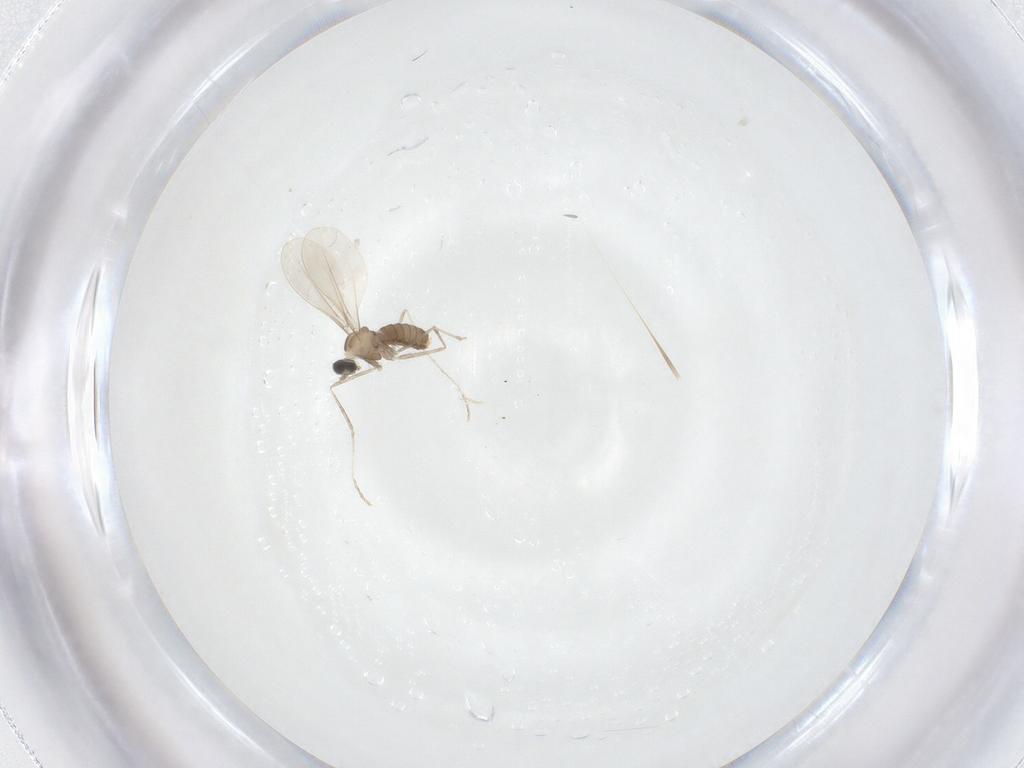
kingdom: Animalia
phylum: Arthropoda
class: Insecta
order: Diptera
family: Cecidomyiidae
